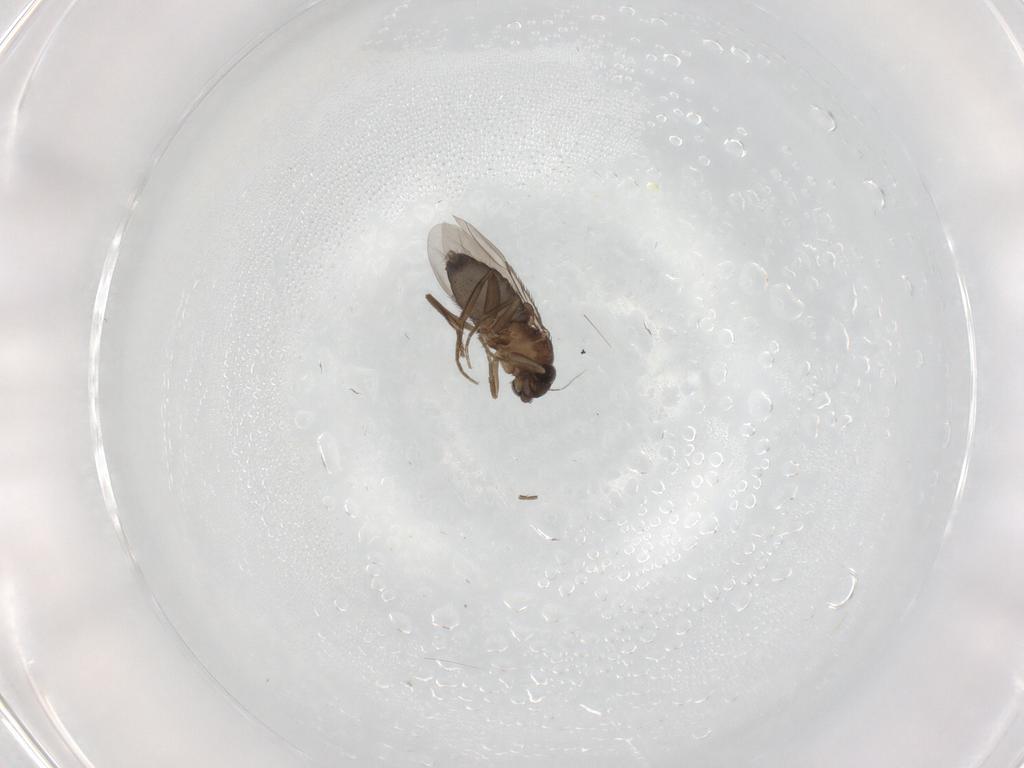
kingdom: Animalia
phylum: Arthropoda
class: Insecta
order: Diptera
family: Phoridae
